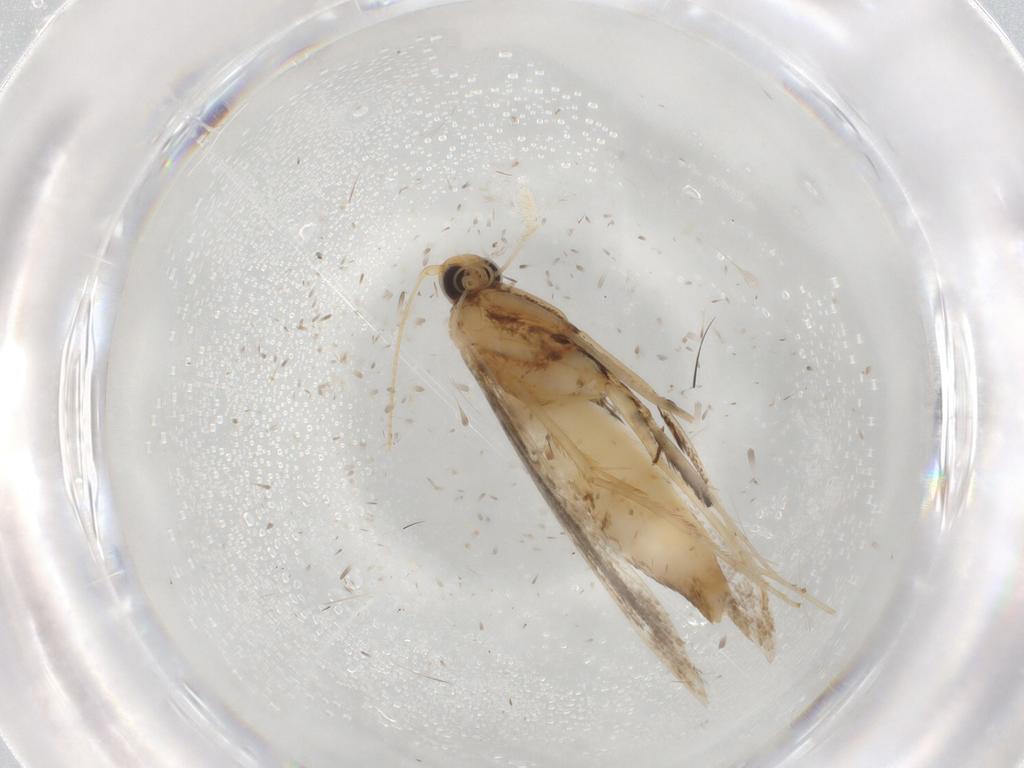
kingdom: Animalia
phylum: Arthropoda
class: Insecta
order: Lepidoptera
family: Gracillariidae
